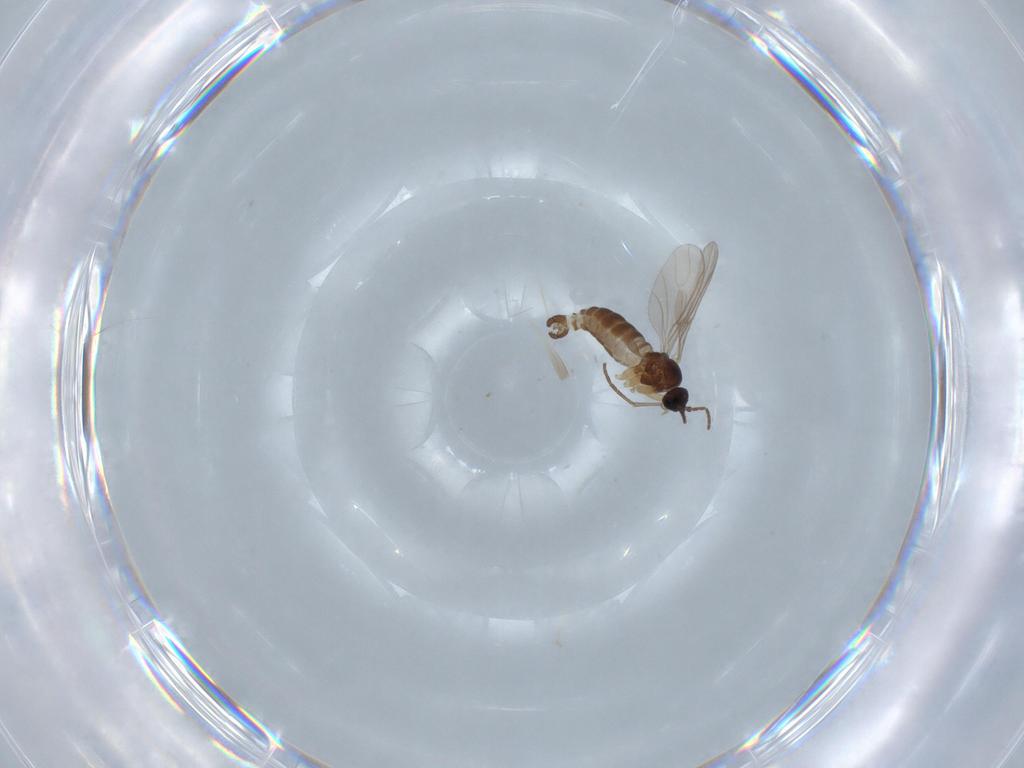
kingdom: Animalia
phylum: Arthropoda
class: Insecta
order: Diptera
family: Sciaridae
